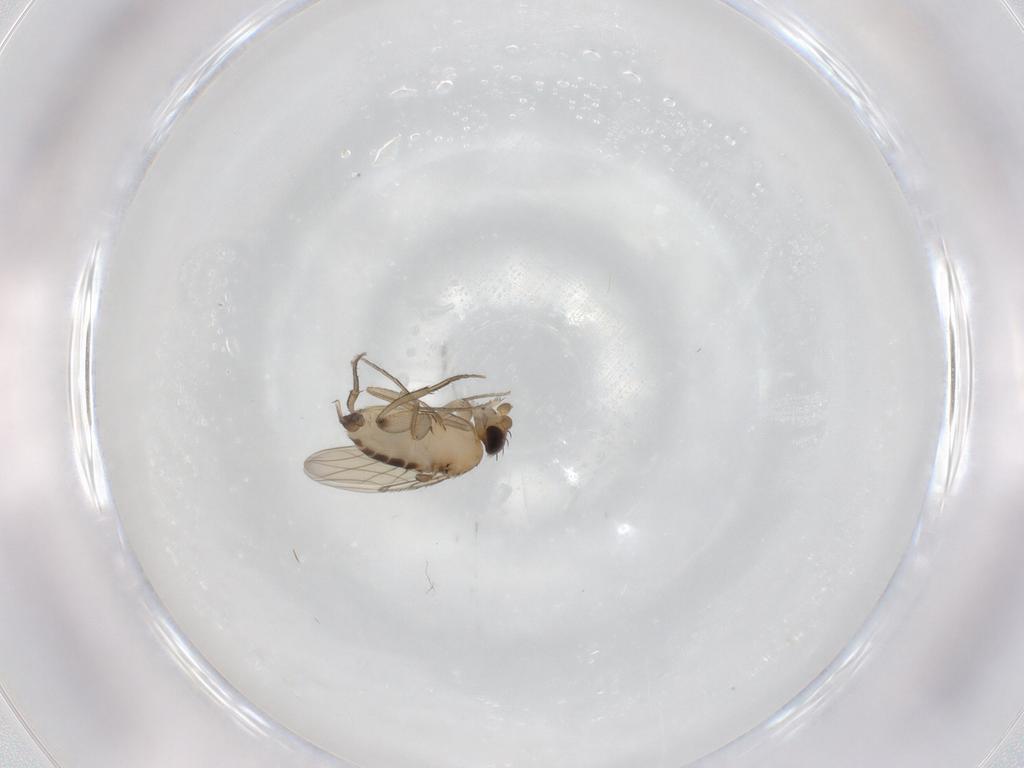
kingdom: Animalia
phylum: Arthropoda
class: Insecta
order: Diptera
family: Phoridae
